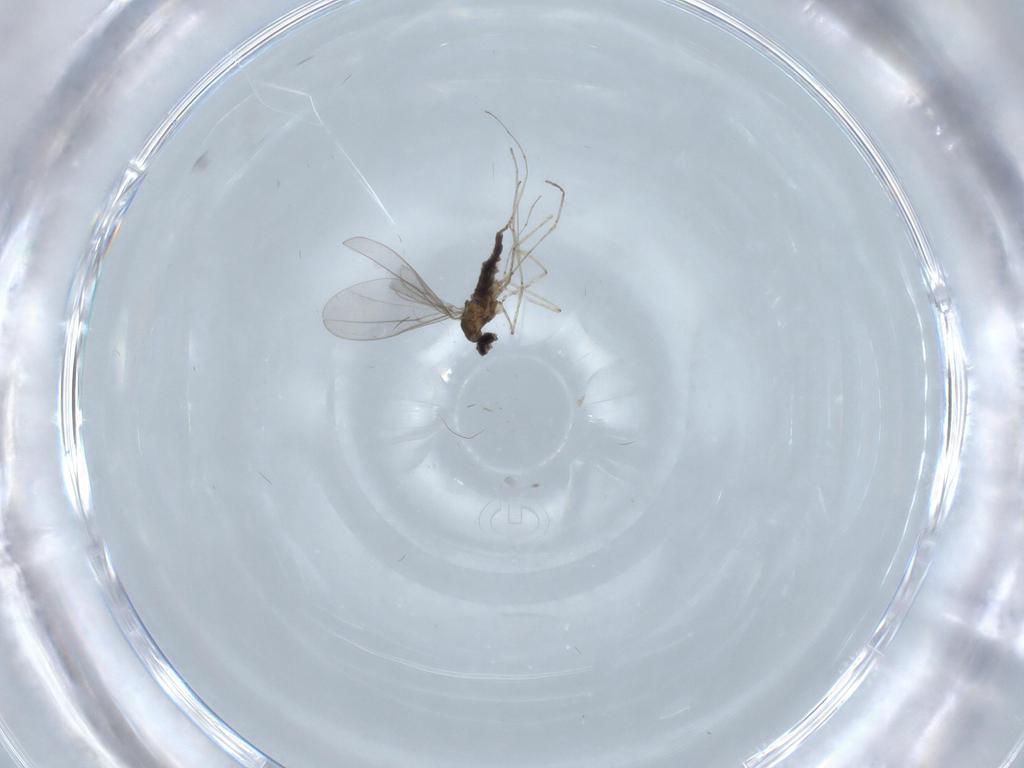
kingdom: Animalia
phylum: Arthropoda
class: Insecta
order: Diptera
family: Cecidomyiidae
